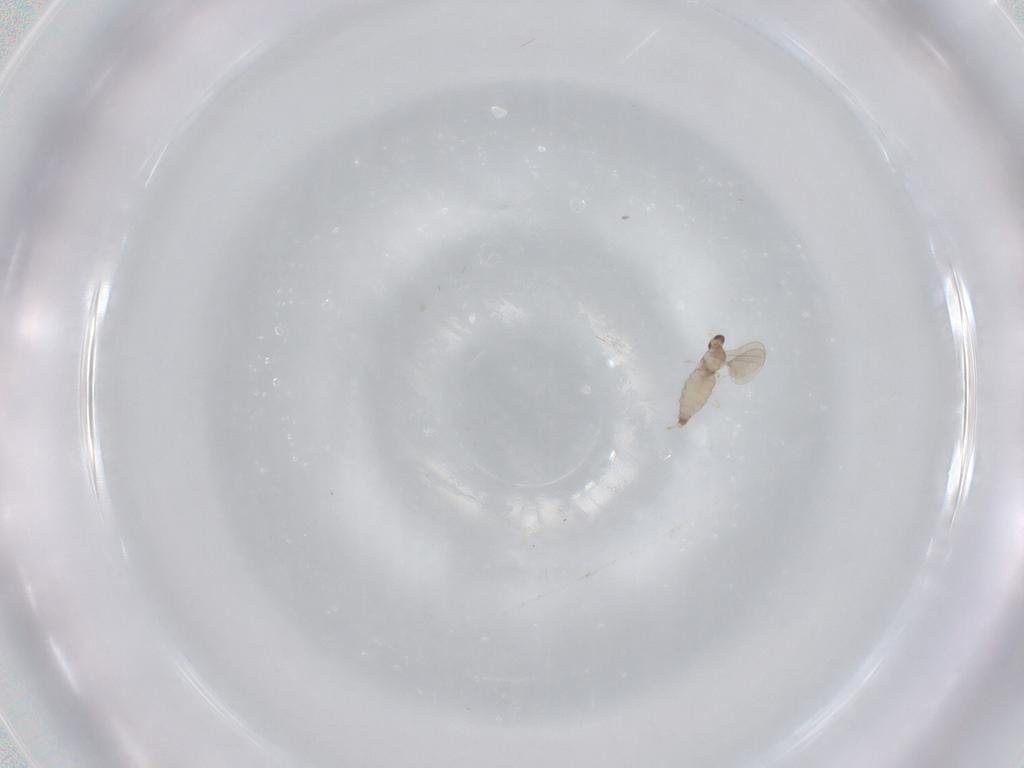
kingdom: Animalia
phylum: Arthropoda
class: Insecta
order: Diptera
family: Cecidomyiidae
